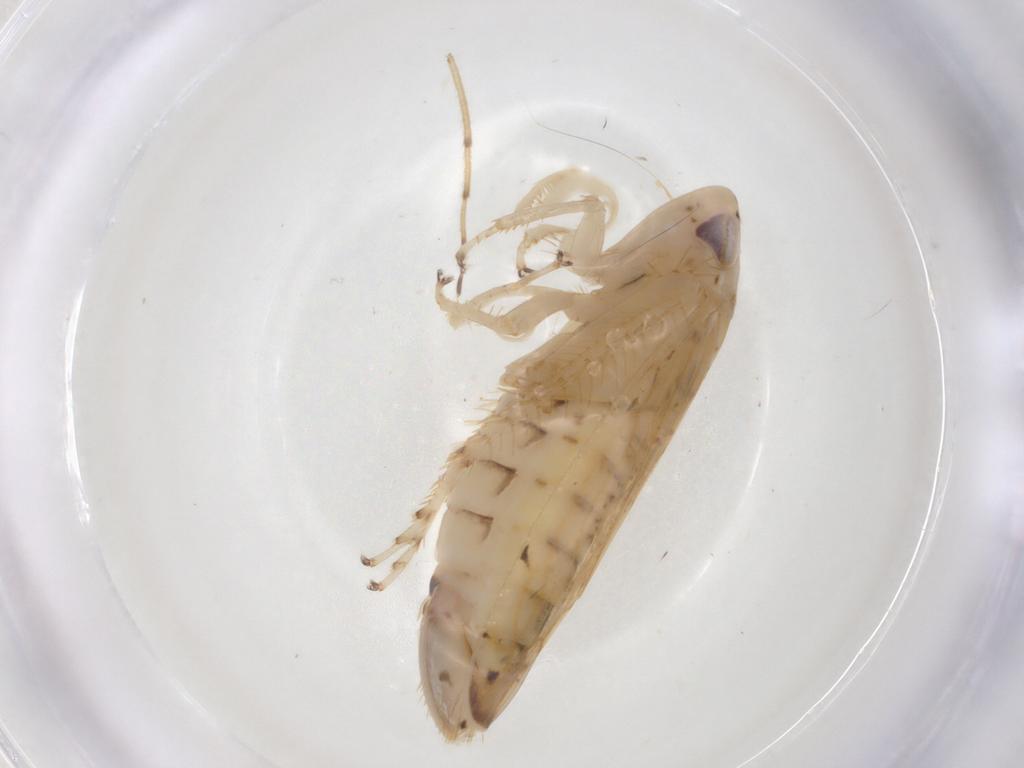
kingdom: Animalia
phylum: Arthropoda
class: Insecta
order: Hemiptera
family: Cicadellidae
